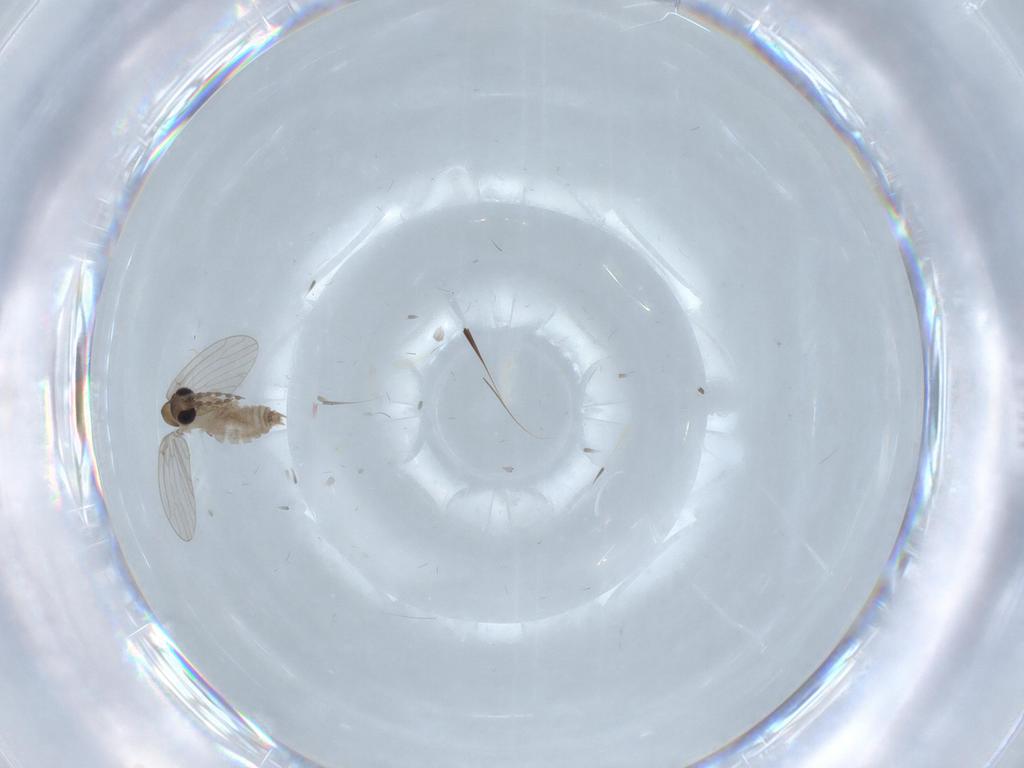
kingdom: Animalia
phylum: Arthropoda
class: Insecta
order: Diptera
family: Psychodidae
